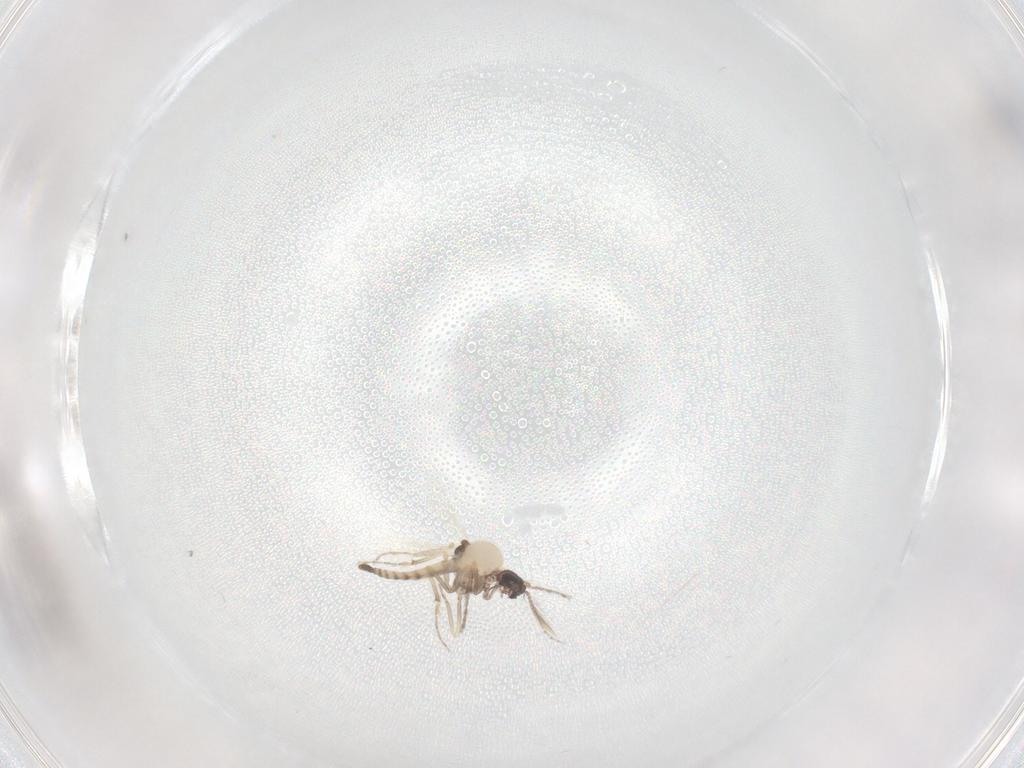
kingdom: Animalia
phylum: Arthropoda
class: Insecta
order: Diptera
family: Ceratopogonidae
